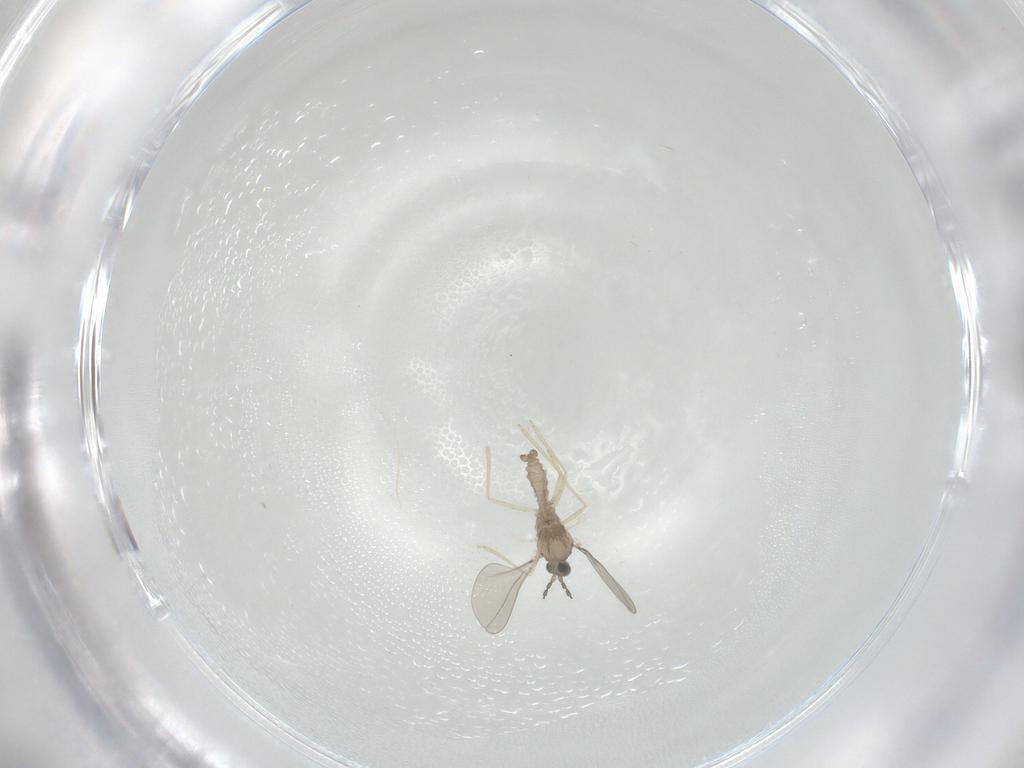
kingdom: Animalia
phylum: Arthropoda
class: Insecta
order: Diptera
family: Cecidomyiidae
